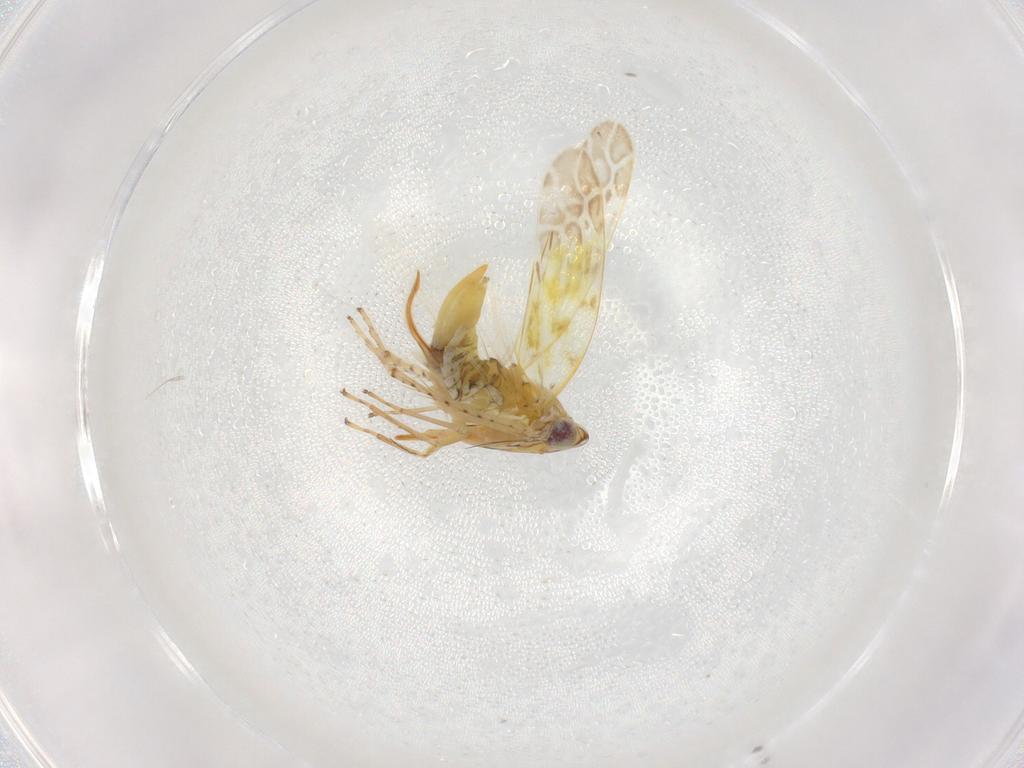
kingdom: Animalia
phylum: Arthropoda
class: Insecta
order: Hemiptera
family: Cicadellidae
